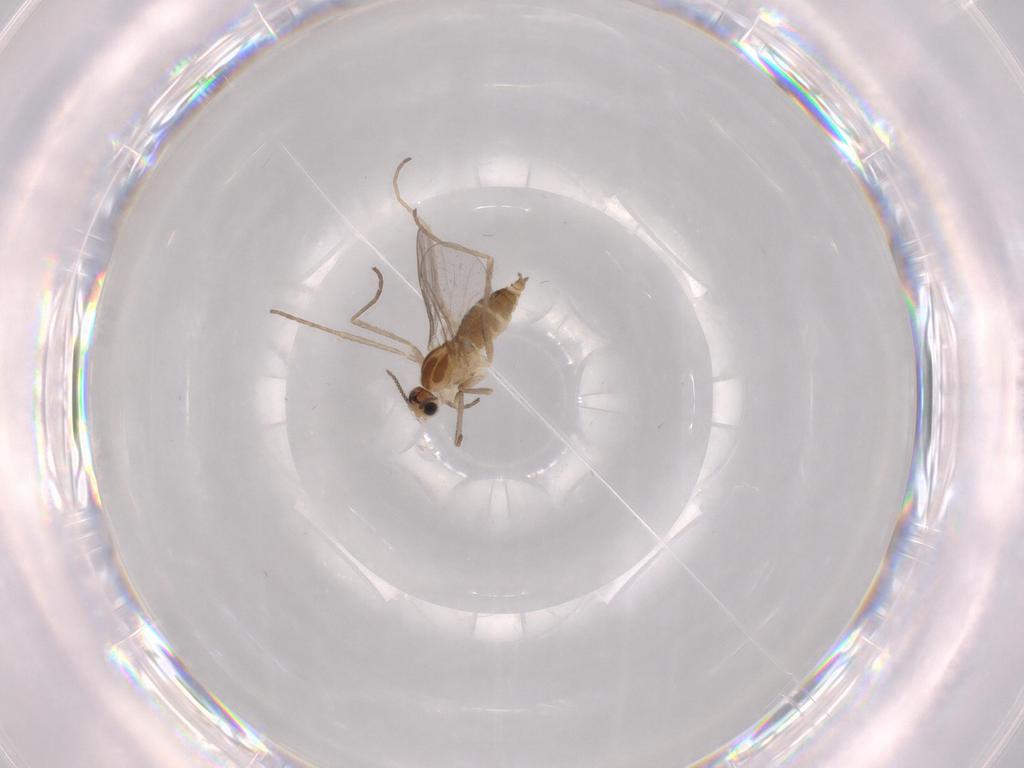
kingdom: Animalia
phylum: Arthropoda
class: Insecta
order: Diptera
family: Cecidomyiidae
